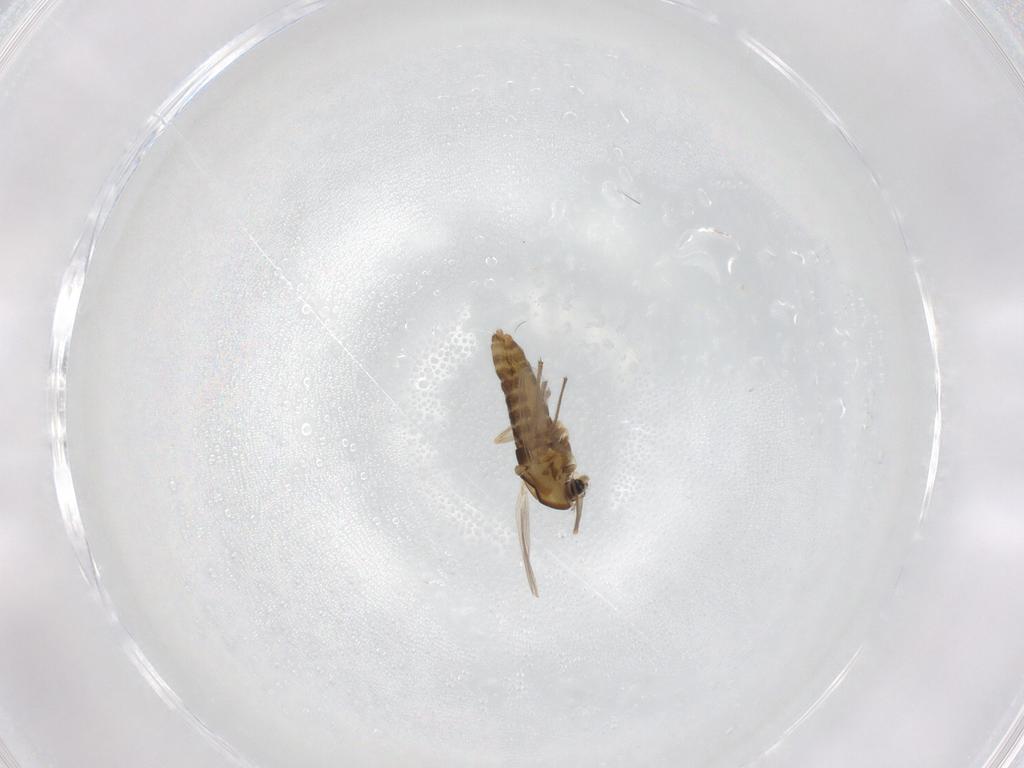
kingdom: Animalia
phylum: Arthropoda
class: Insecta
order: Diptera
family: Chironomidae
